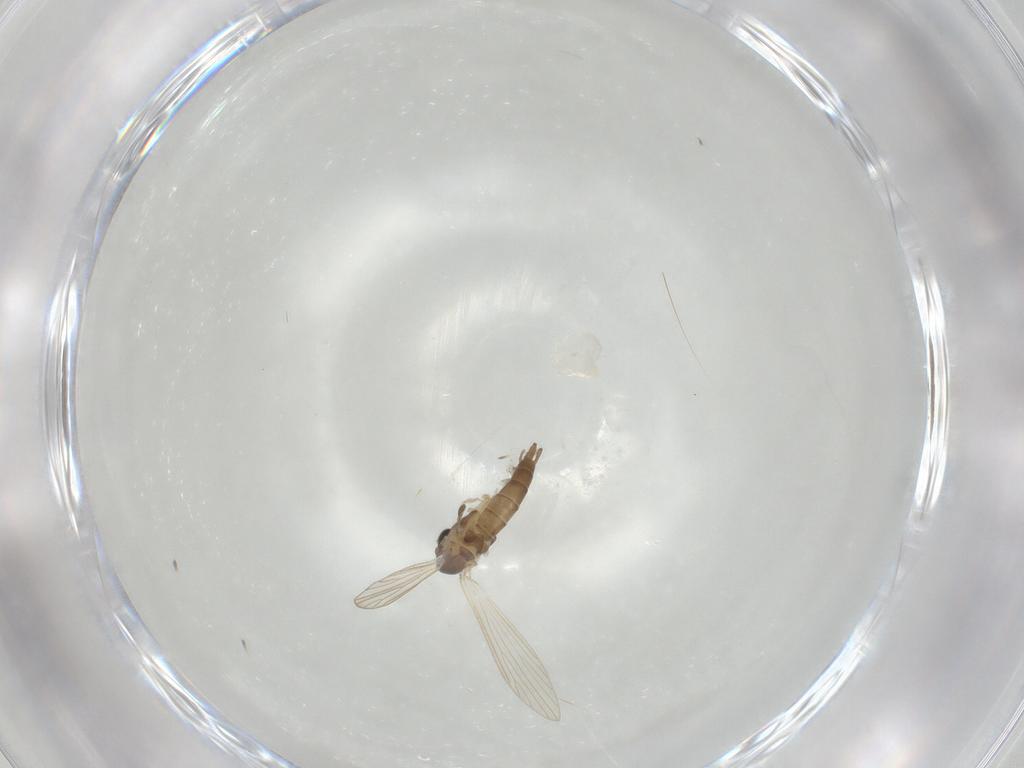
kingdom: Animalia
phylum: Arthropoda
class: Insecta
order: Diptera
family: Psychodidae
